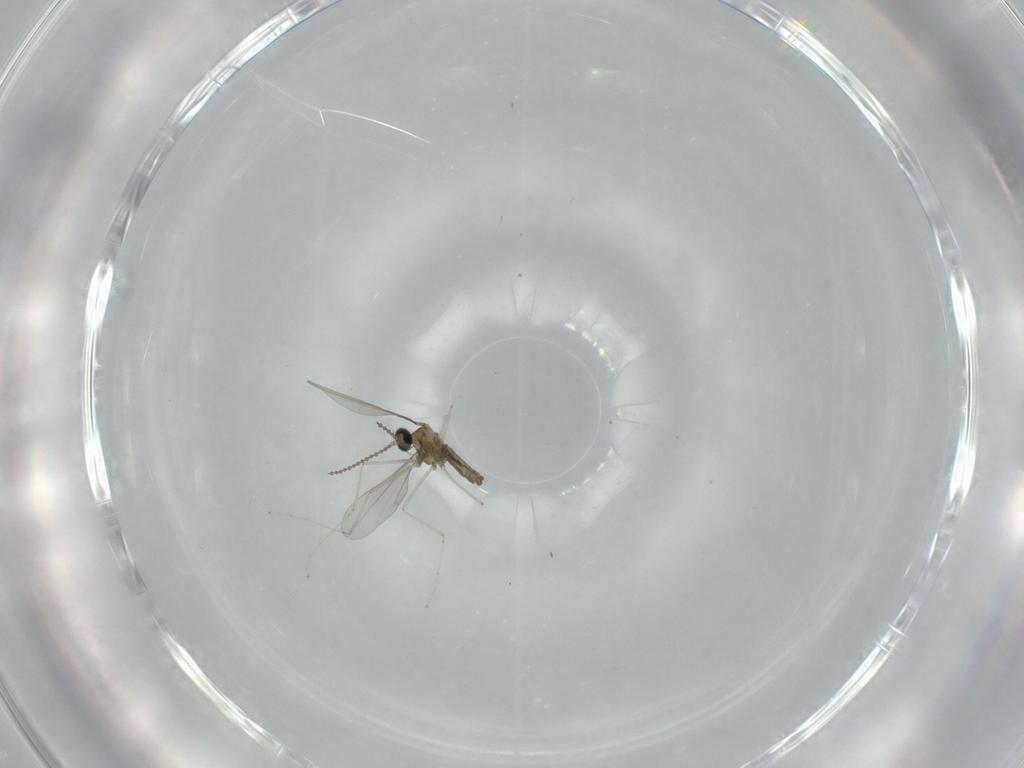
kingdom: Animalia
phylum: Arthropoda
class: Insecta
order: Diptera
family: Cecidomyiidae
